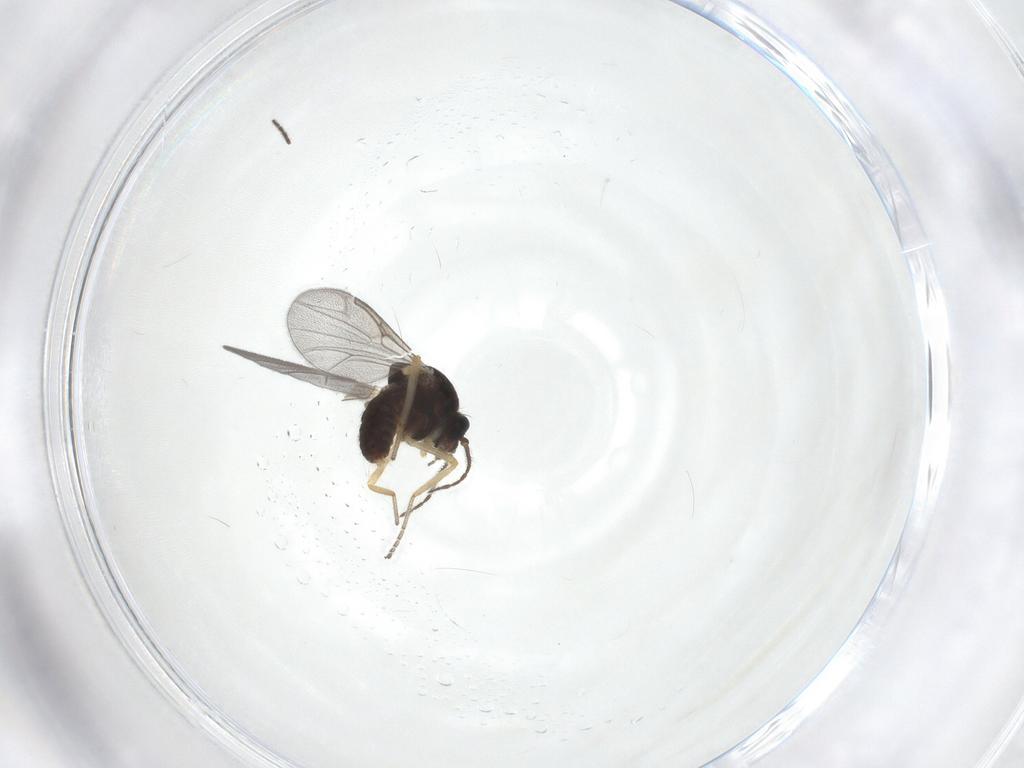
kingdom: Animalia
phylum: Arthropoda
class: Insecta
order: Diptera
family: Ceratopogonidae
